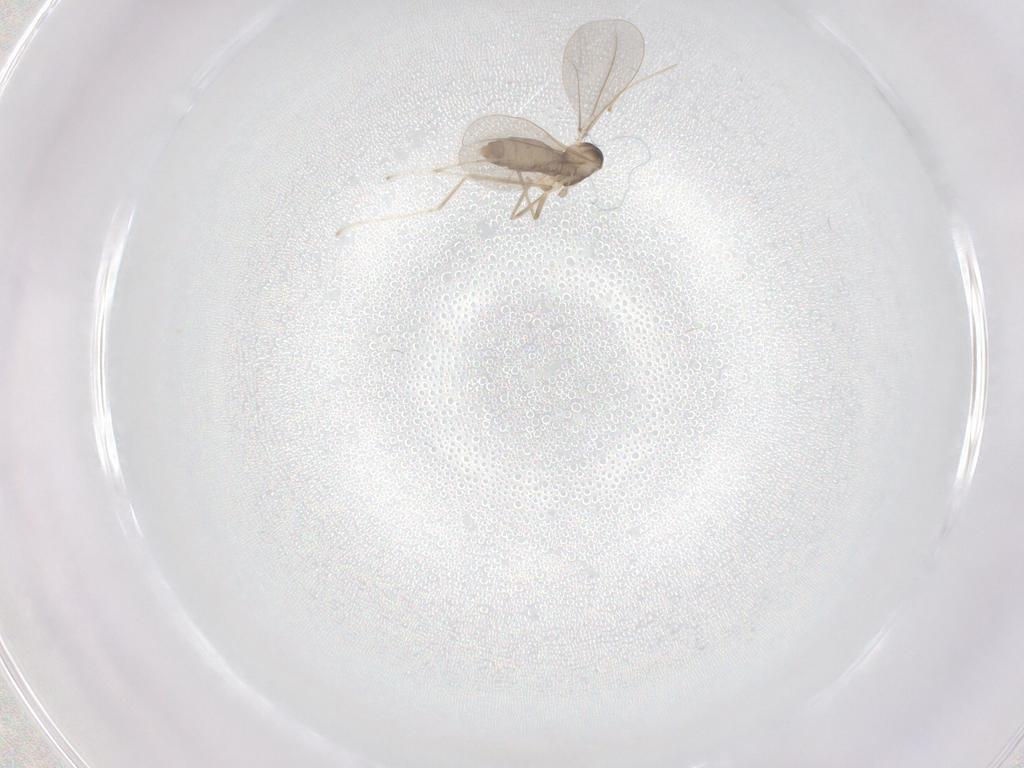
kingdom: Animalia
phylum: Arthropoda
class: Insecta
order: Diptera
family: Cecidomyiidae
